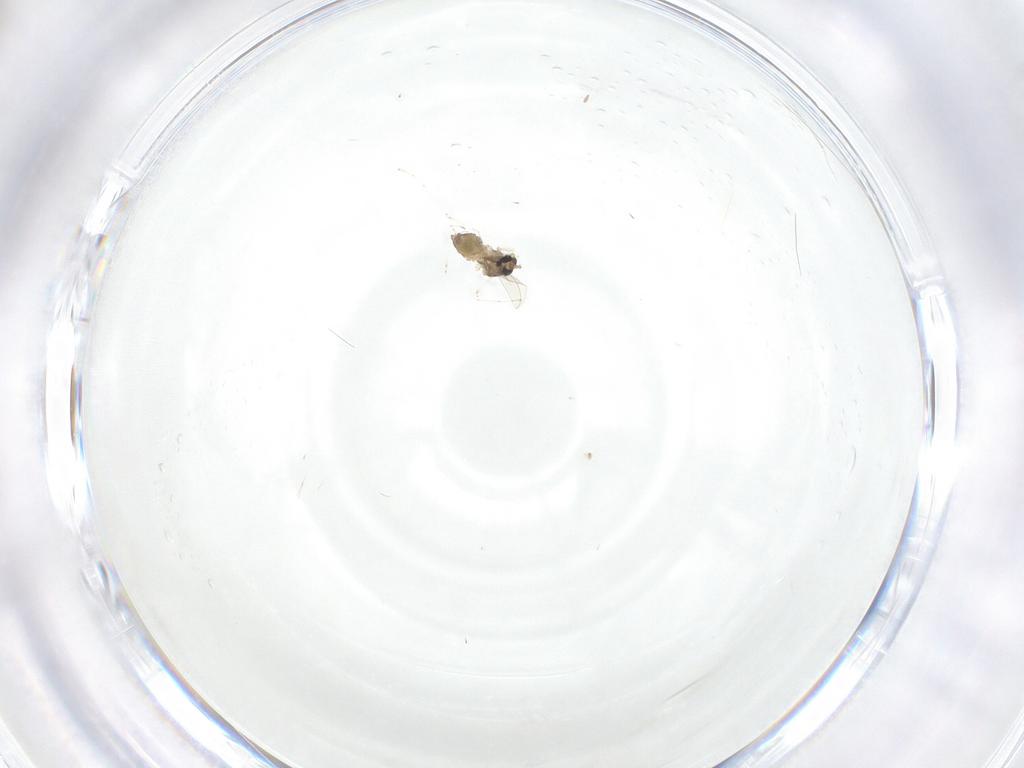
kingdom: Animalia
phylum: Arthropoda
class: Insecta
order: Diptera
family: Cecidomyiidae
